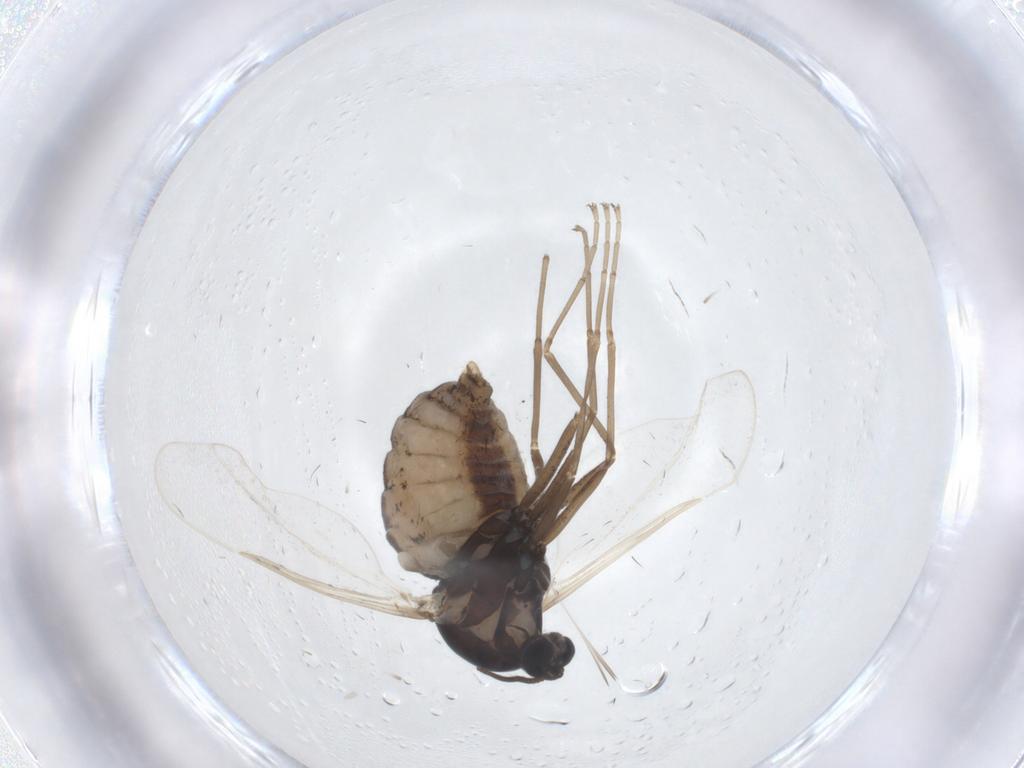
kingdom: Animalia
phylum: Arthropoda
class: Insecta
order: Diptera
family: Cecidomyiidae
